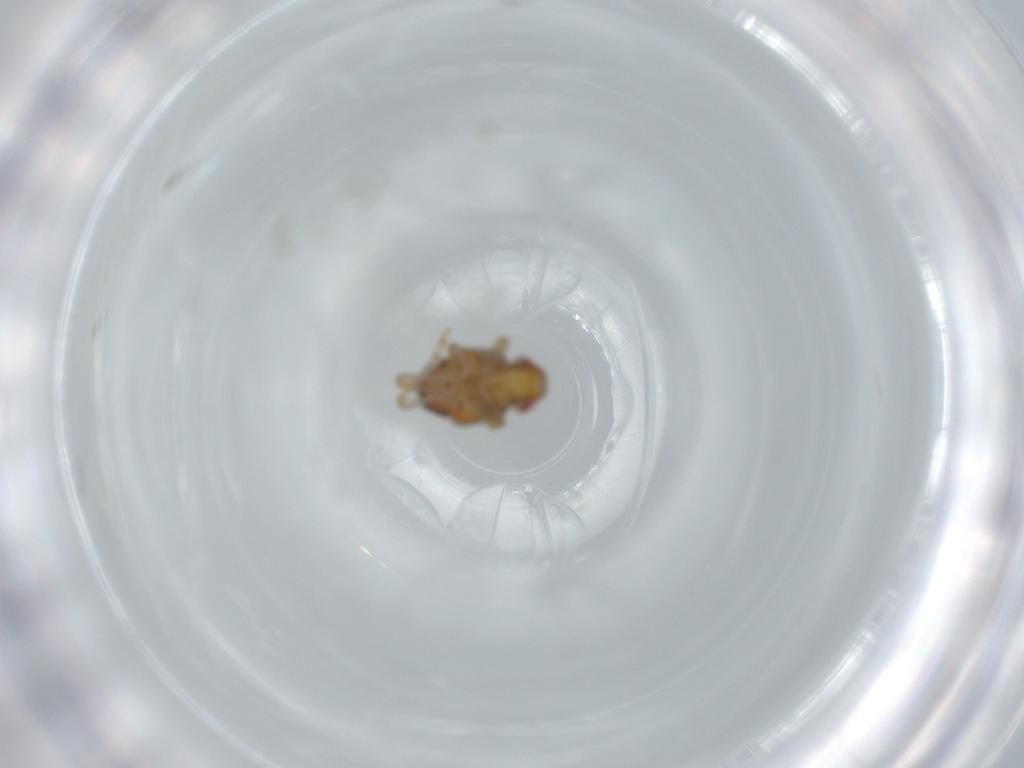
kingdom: Animalia
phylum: Arthropoda
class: Insecta
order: Hemiptera
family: Issidae
